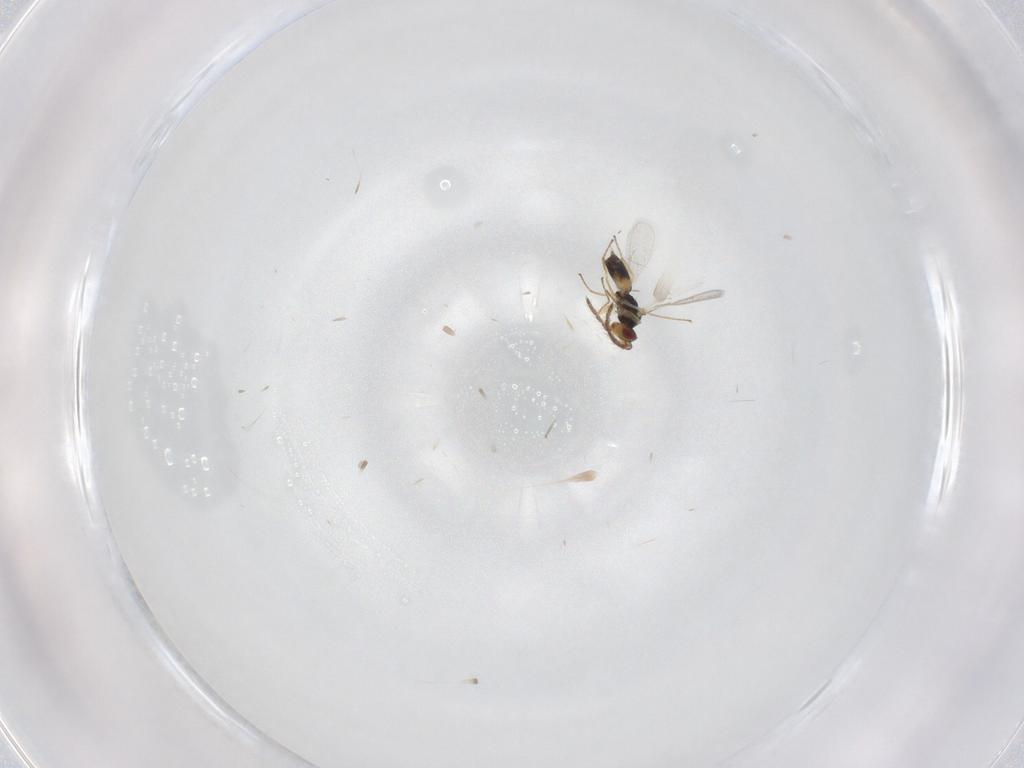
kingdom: Animalia
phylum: Arthropoda
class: Insecta
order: Hymenoptera
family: Eulophidae
